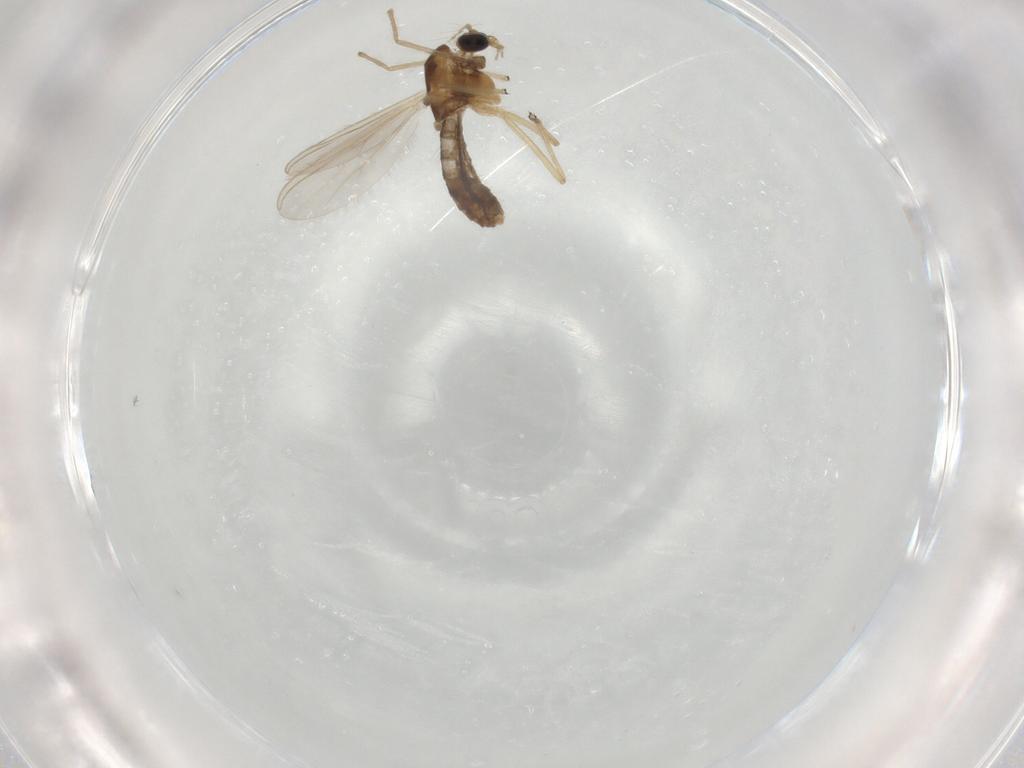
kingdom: Animalia
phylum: Arthropoda
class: Insecta
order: Diptera
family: Chironomidae
